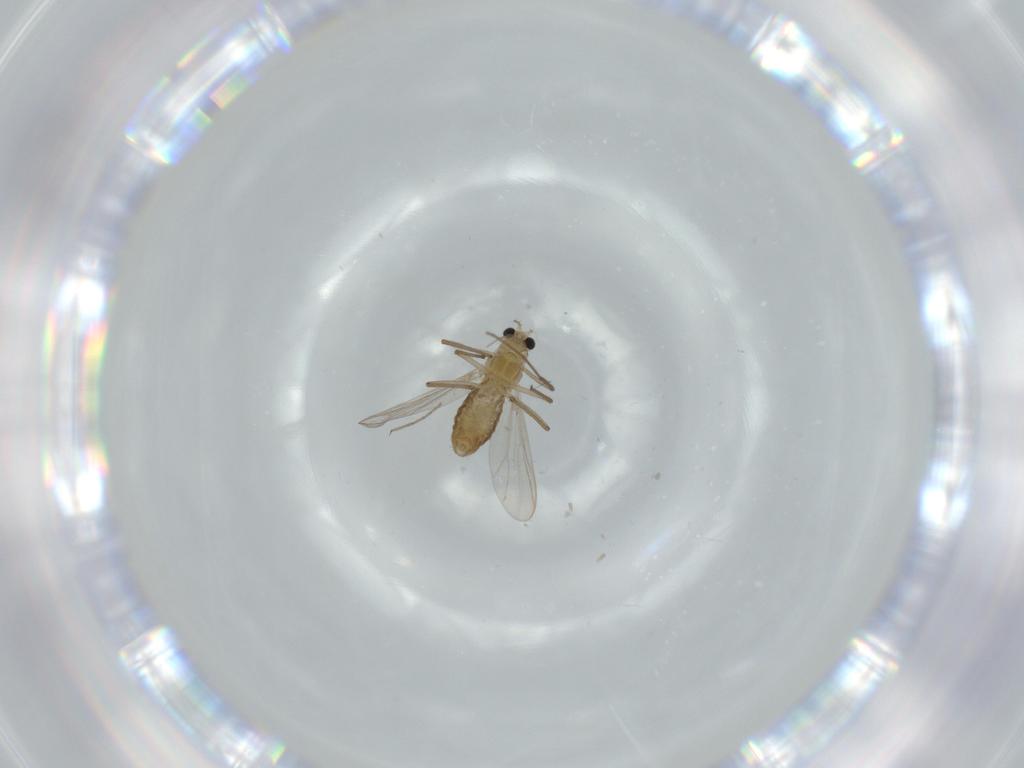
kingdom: Animalia
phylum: Arthropoda
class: Insecta
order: Diptera
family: Chironomidae
